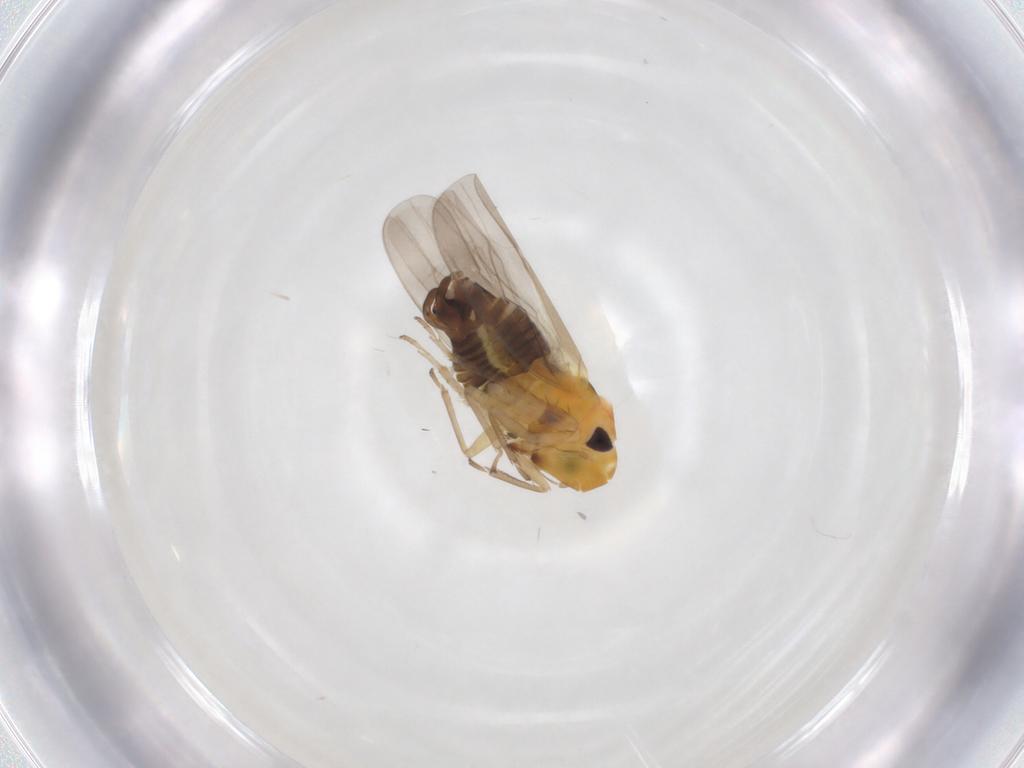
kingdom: Animalia
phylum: Arthropoda
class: Insecta
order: Hemiptera
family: Cicadellidae
